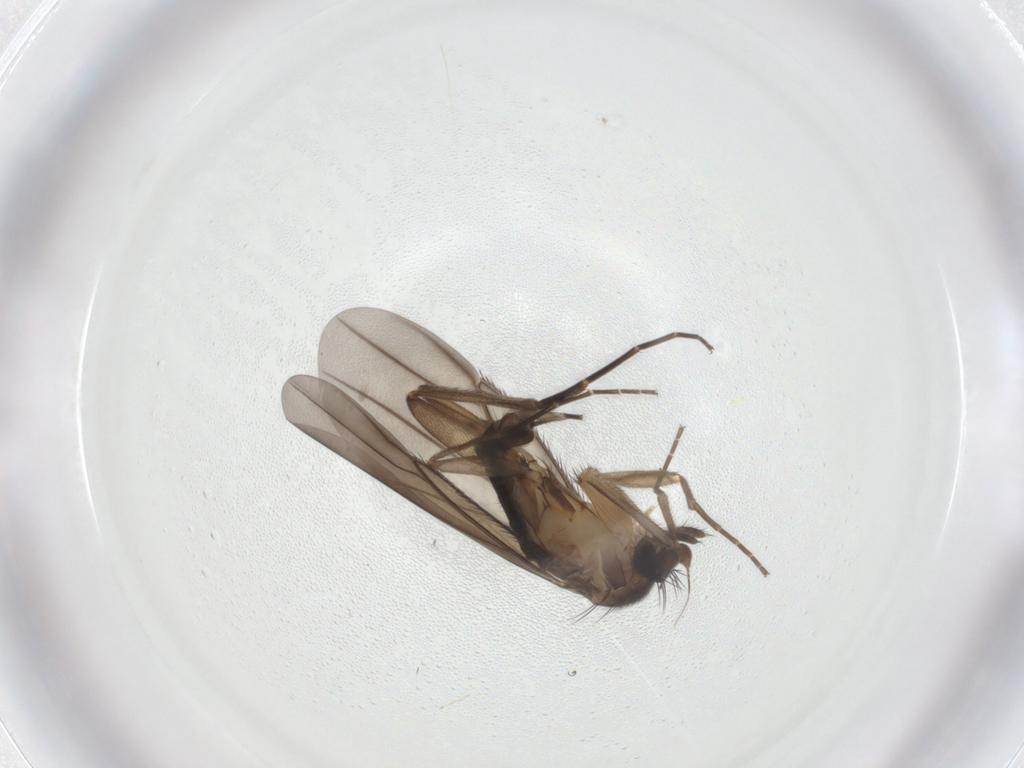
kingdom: Animalia
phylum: Arthropoda
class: Insecta
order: Diptera
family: Phoridae
